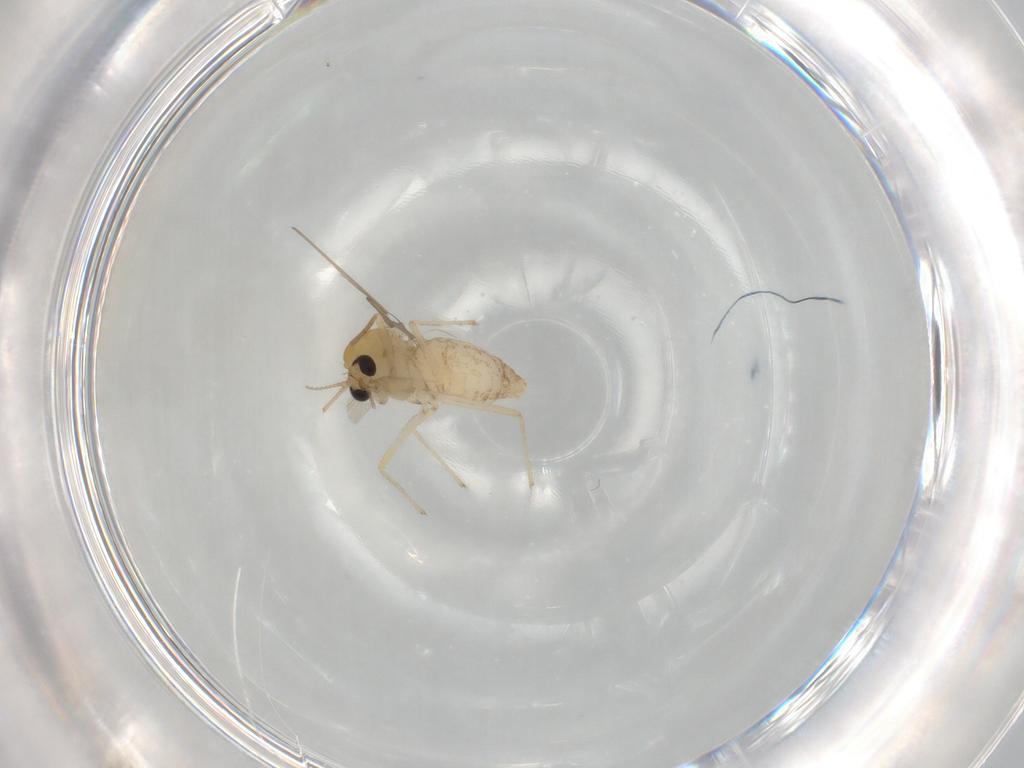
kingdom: Animalia
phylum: Arthropoda
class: Insecta
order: Diptera
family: Chironomidae
